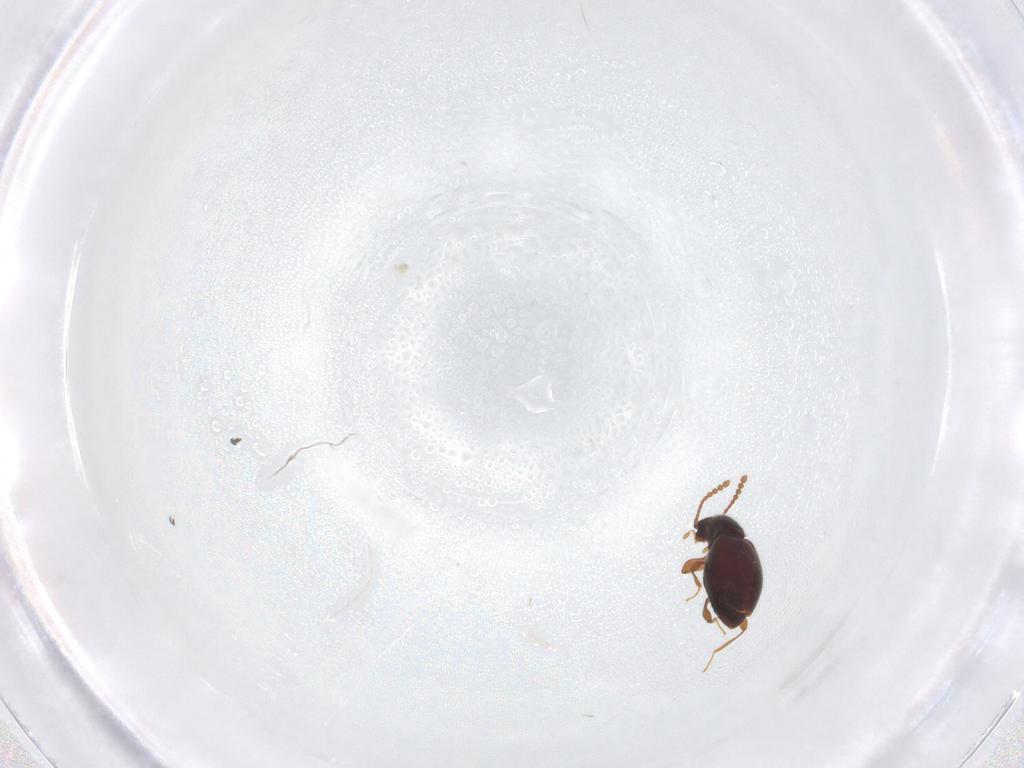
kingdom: Animalia
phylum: Arthropoda
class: Insecta
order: Coleoptera
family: Staphylinidae
